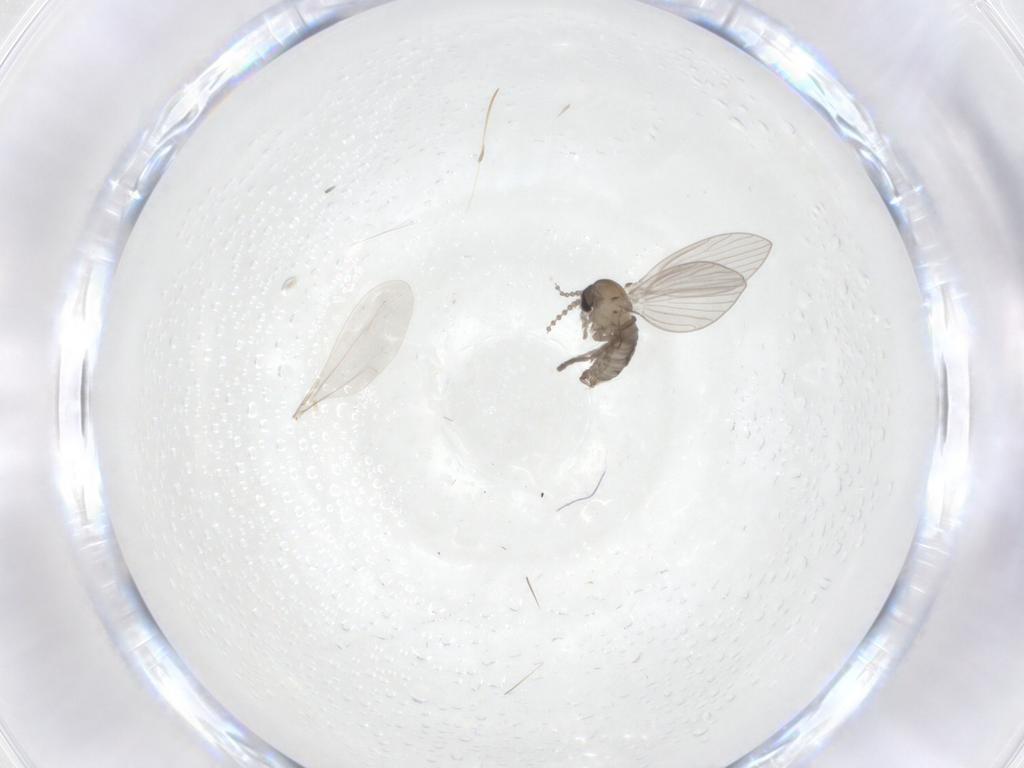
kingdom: Animalia
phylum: Arthropoda
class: Insecta
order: Diptera
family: Psychodidae
